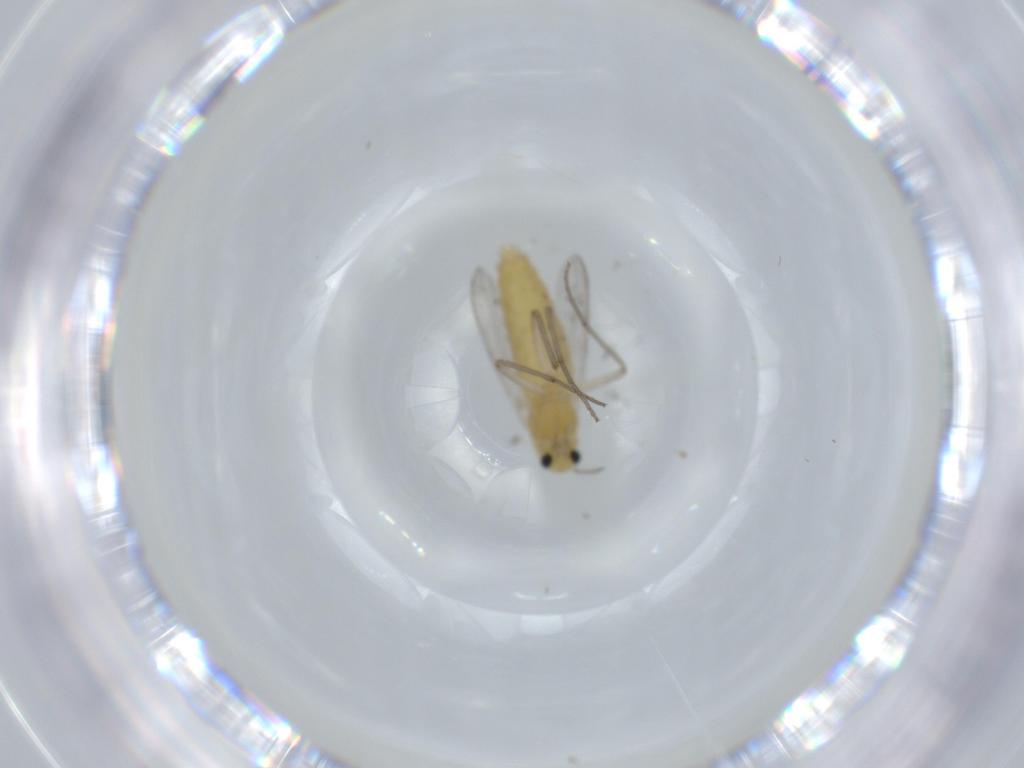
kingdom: Animalia
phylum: Arthropoda
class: Insecta
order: Diptera
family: Chironomidae
